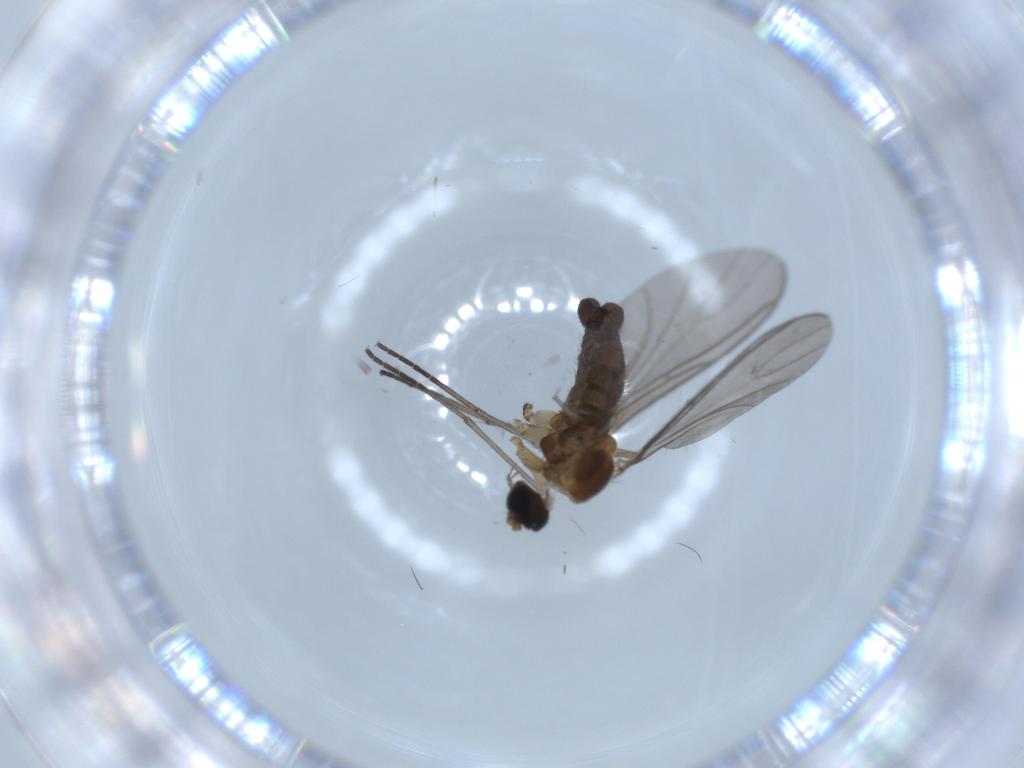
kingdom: Animalia
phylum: Arthropoda
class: Insecta
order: Diptera
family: Sciaridae
